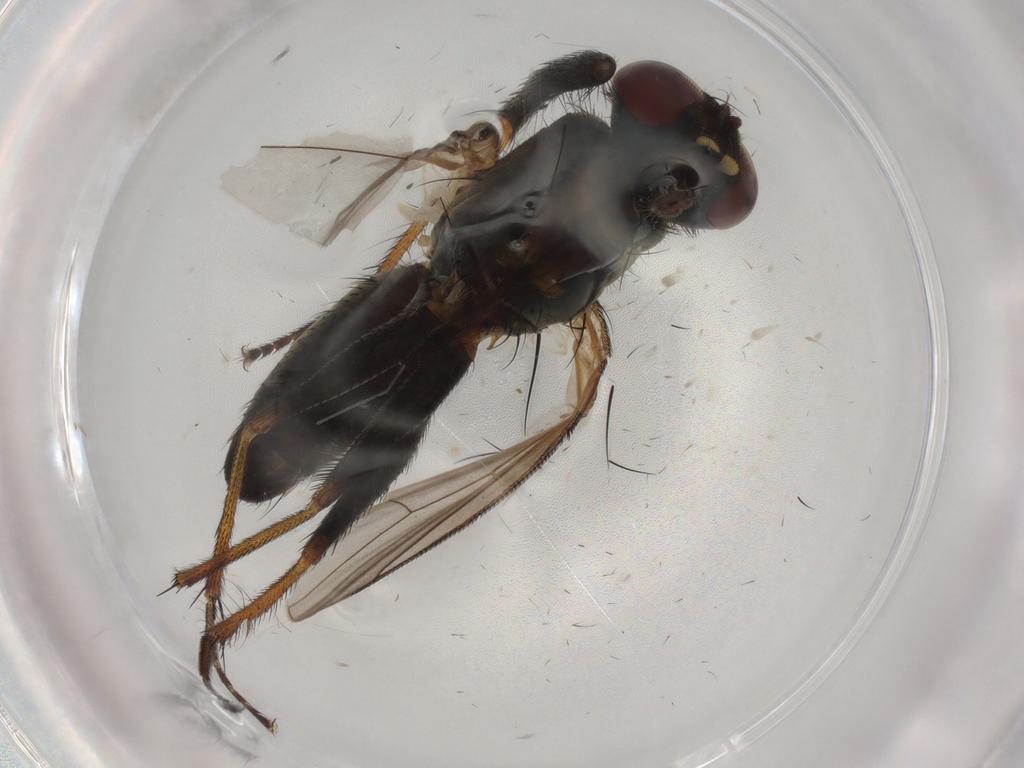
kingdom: Animalia
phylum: Arthropoda
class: Insecta
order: Diptera
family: Muscidae
